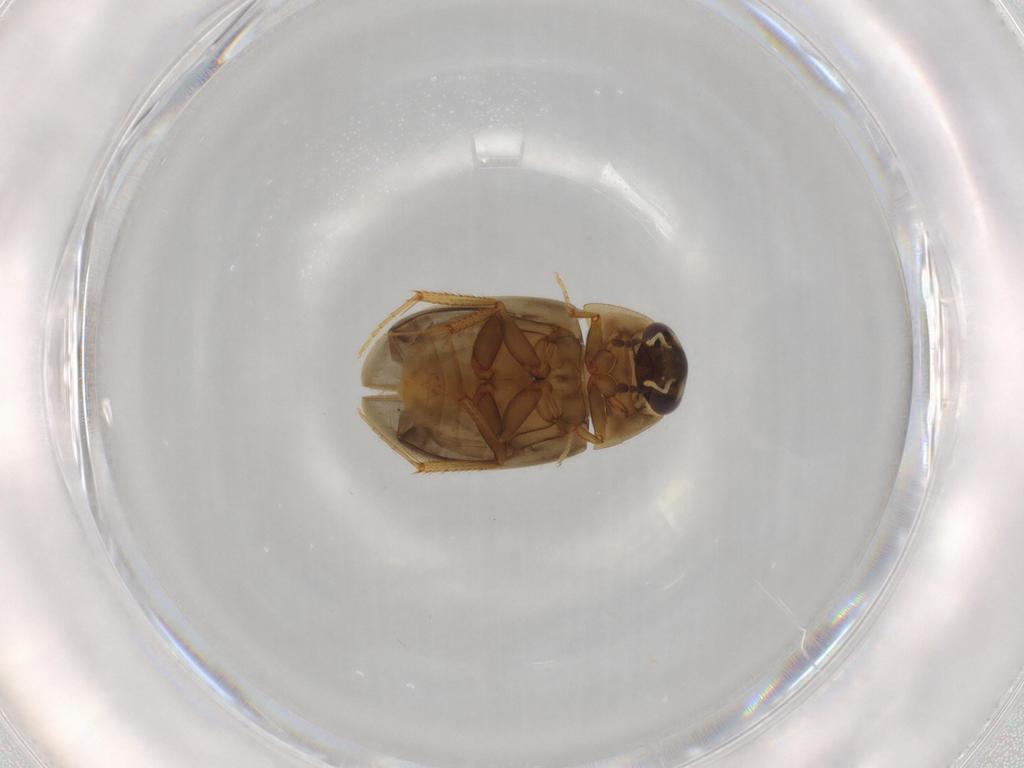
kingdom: Animalia
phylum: Arthropoda
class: Insecta
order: Coleoptera
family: Hydrophilidae
